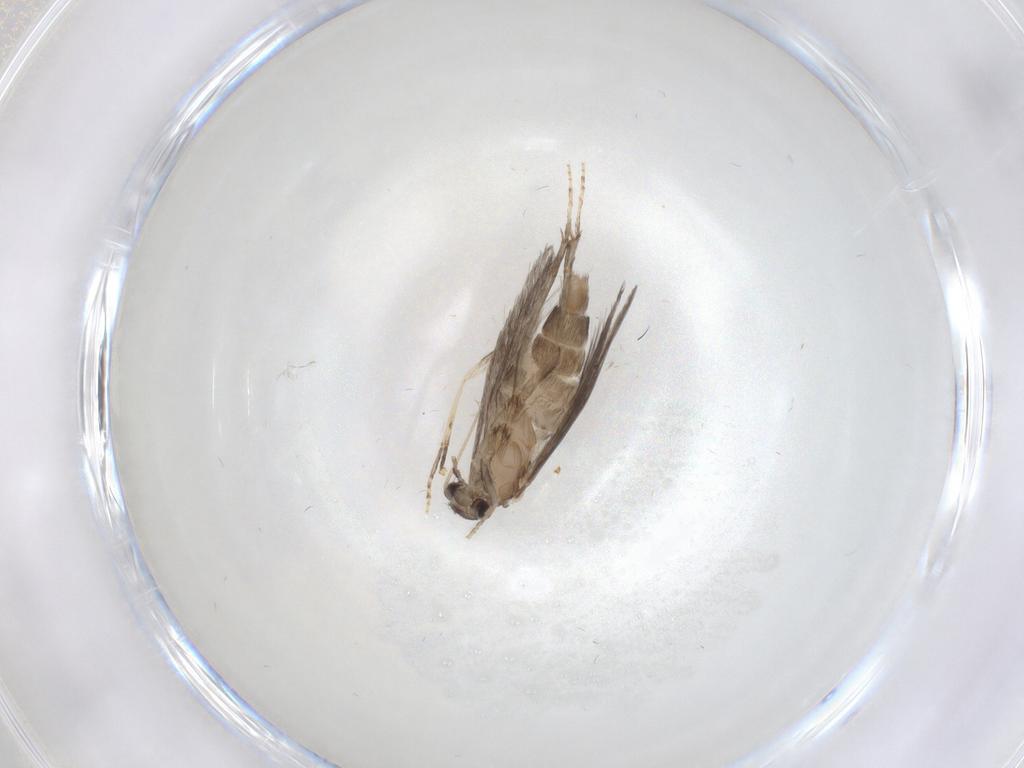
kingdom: Animalia
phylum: Arthropoda
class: Insecta
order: Trichoptera
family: Hydroptilidae
